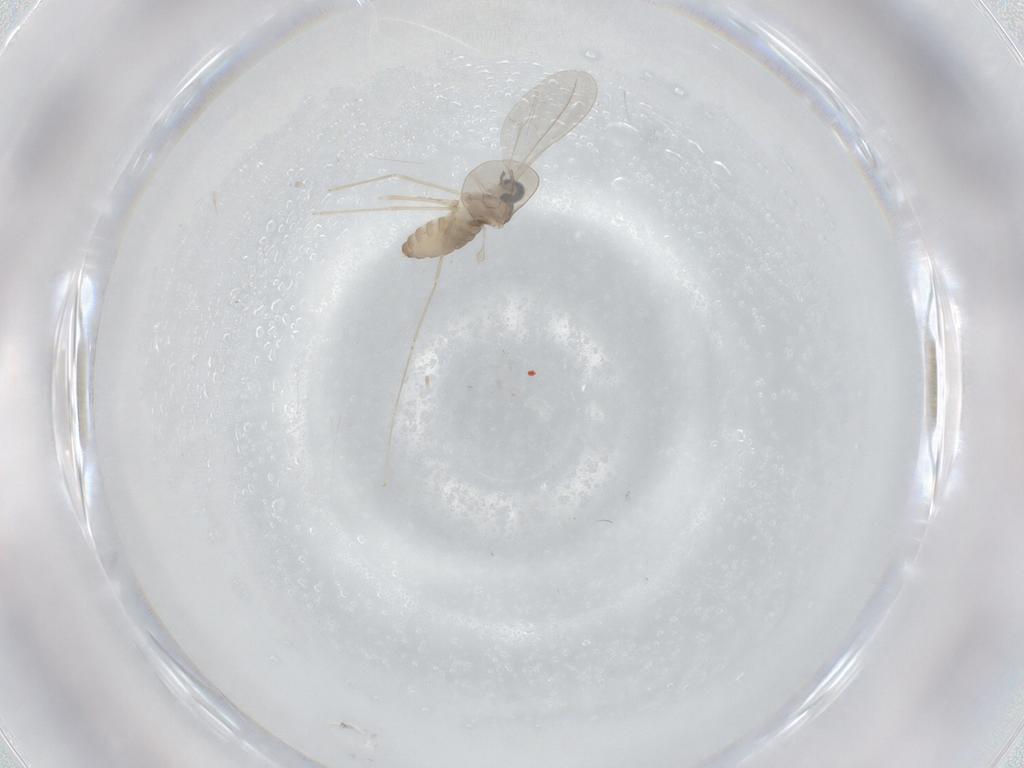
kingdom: Animalia
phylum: Arthropoda
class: Insecta
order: Diptera
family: Cecidomyiidae
